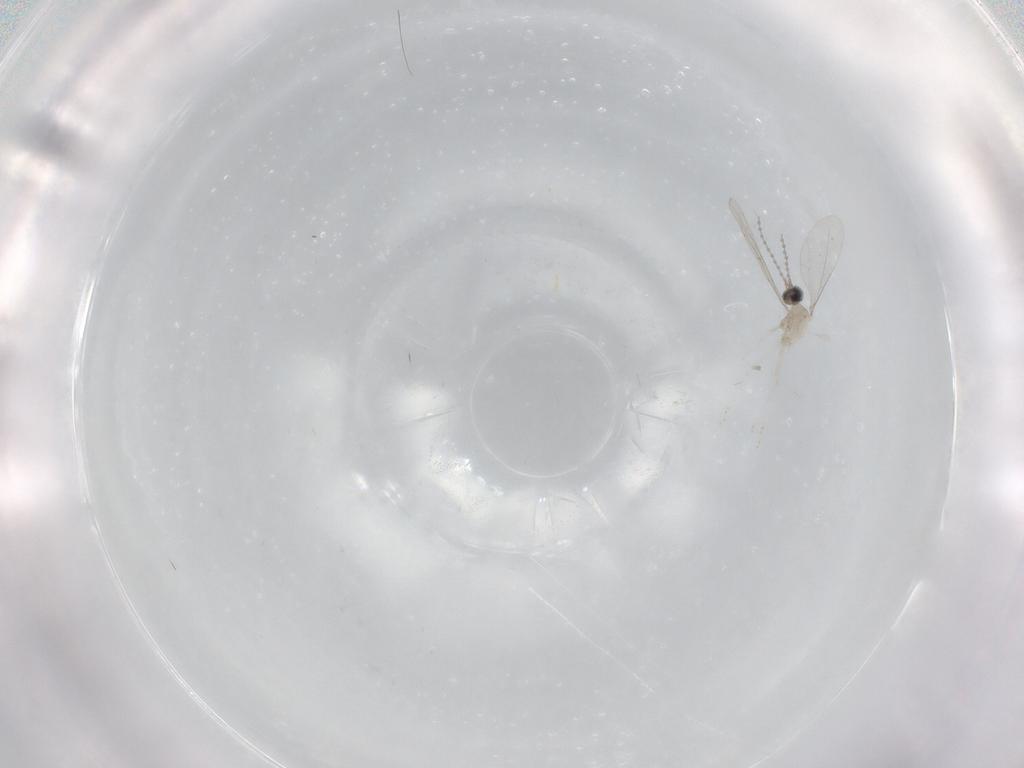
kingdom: Animalia
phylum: Arthropoda
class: Insecta
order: Diptera
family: Cecidomyiidae
